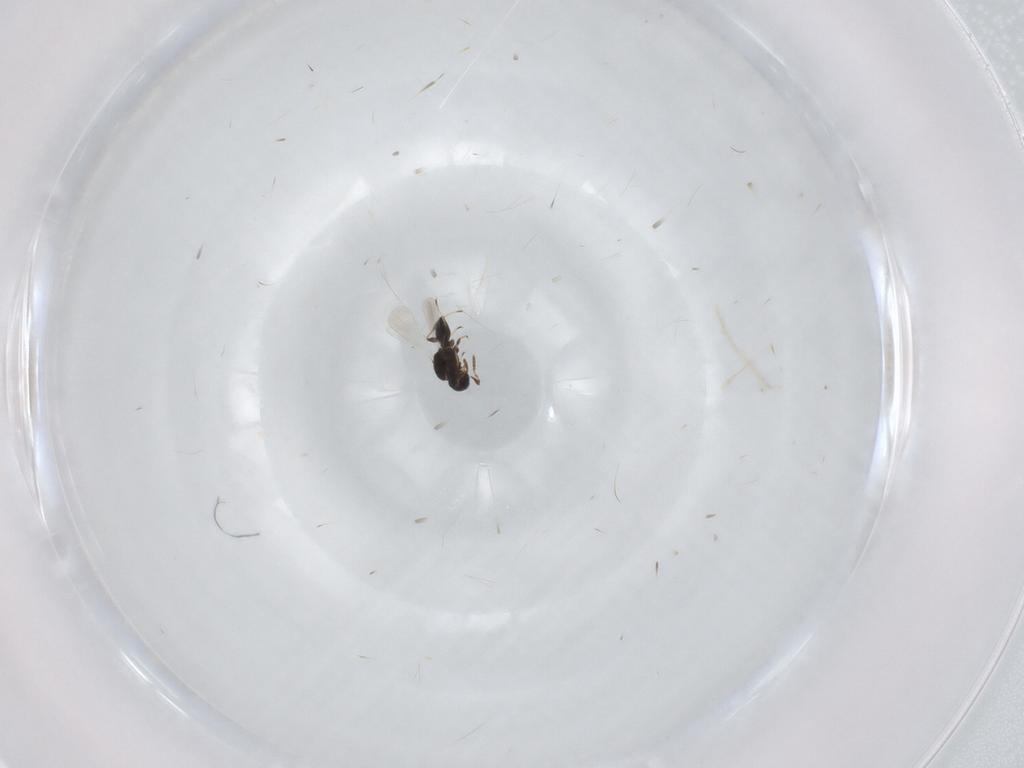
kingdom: Animalia
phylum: Arthropoda
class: Insecta
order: Hymenoptera
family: Platygastridae
